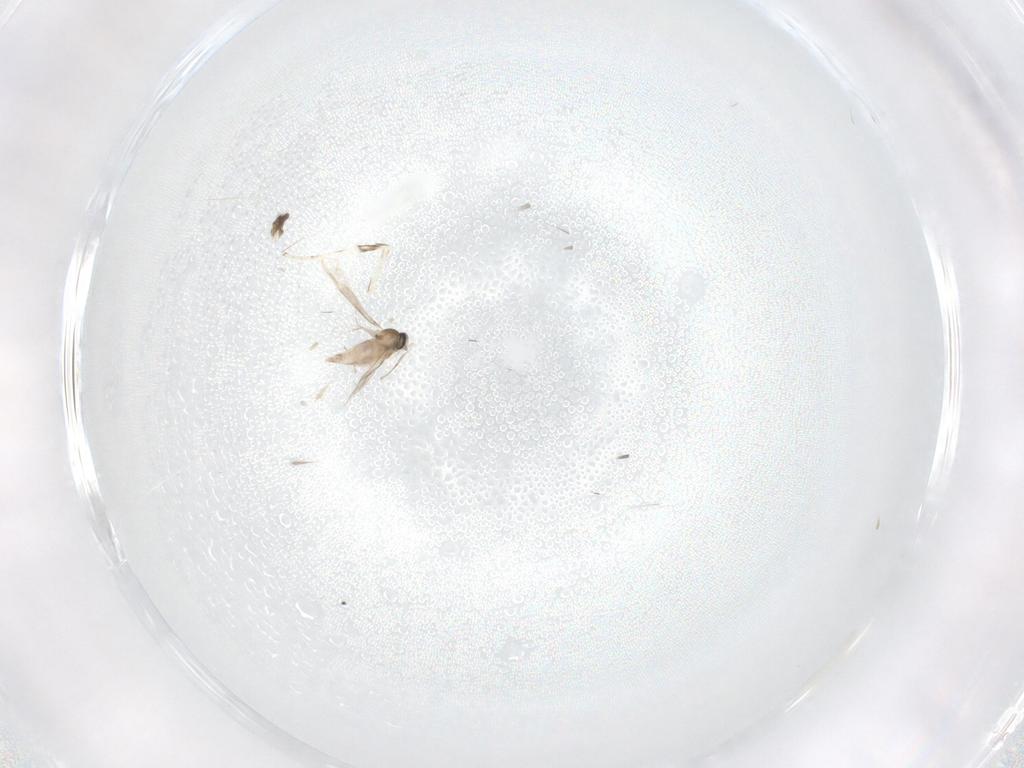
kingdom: Animalia
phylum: Arthropoda
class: Insecta
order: Diptera
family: Cecidomyiidae
